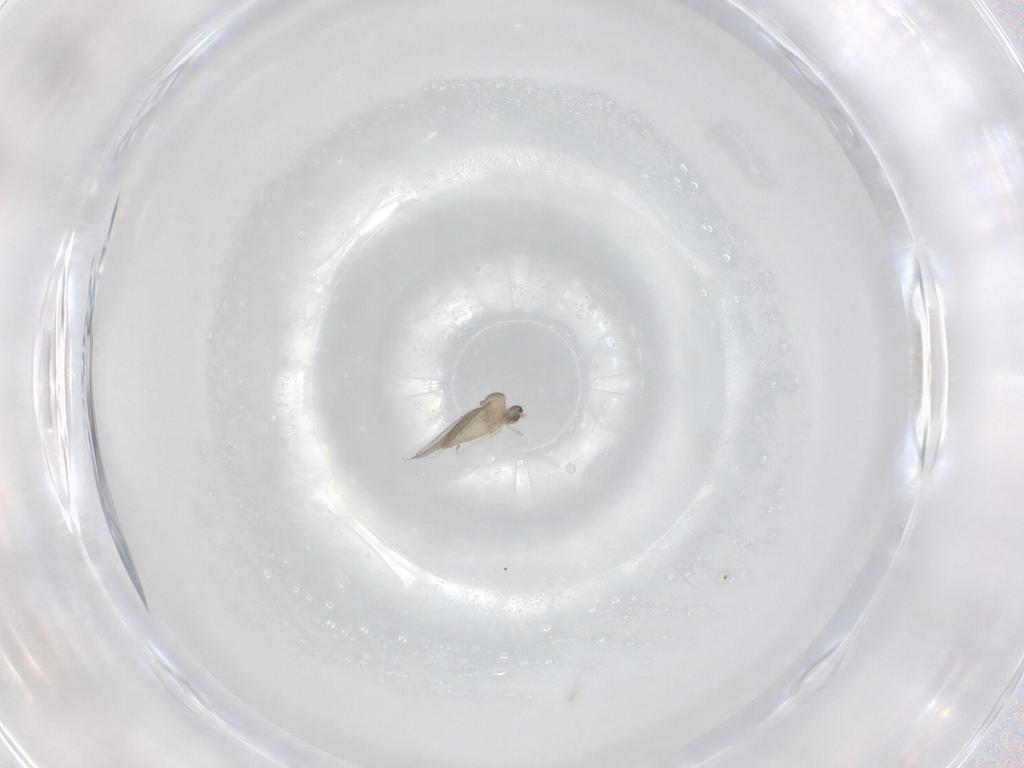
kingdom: Animalia
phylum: Arthropoda
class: Insecta
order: Diptera
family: Cecidomyiidae
